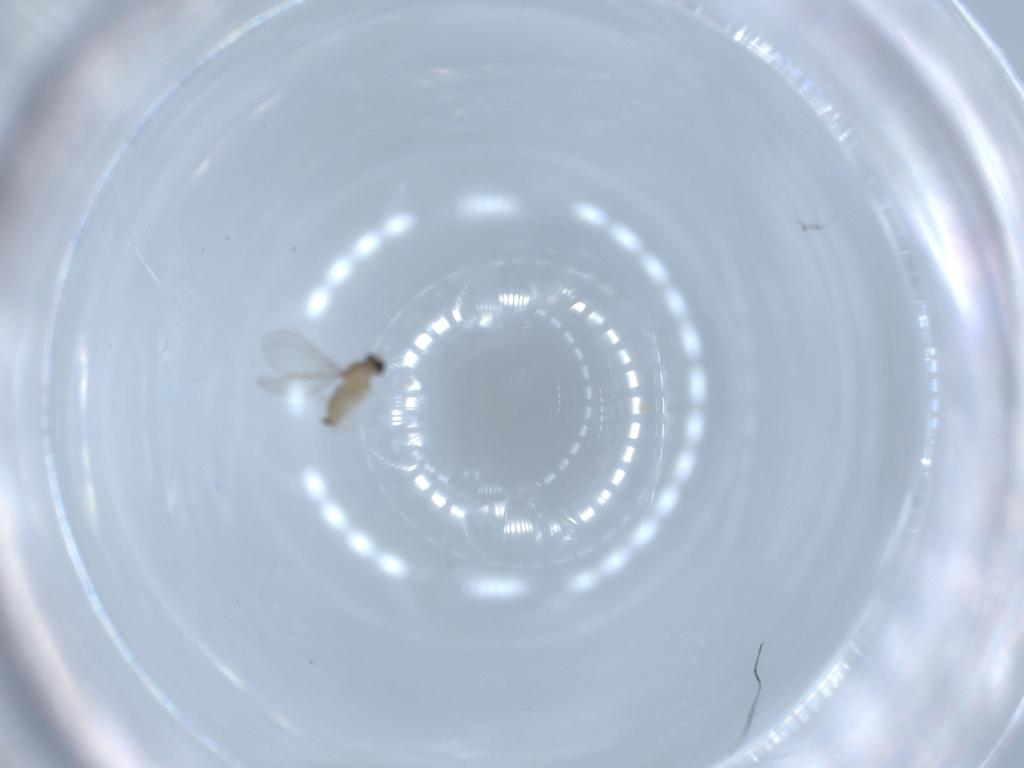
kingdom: Animalia
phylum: Arthropoda
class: Insecta
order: Diptera
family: Cecidomyiidae
